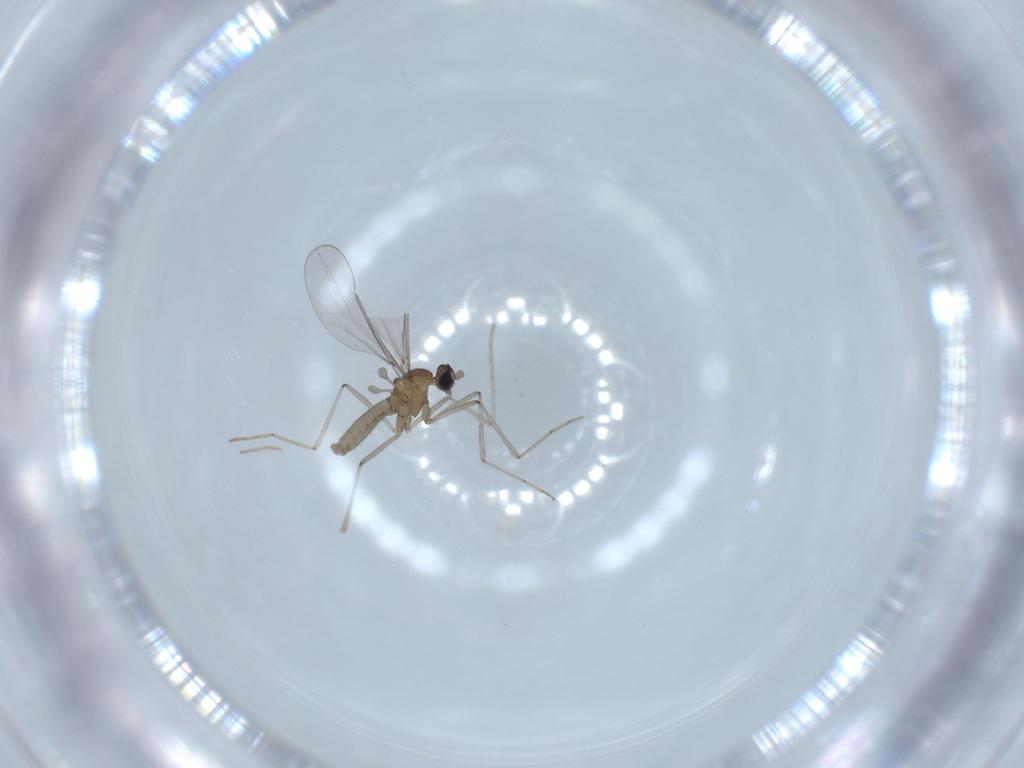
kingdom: Animalia
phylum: Arthropoda
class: Insecta
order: Diptera
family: Cecidomyiidae
